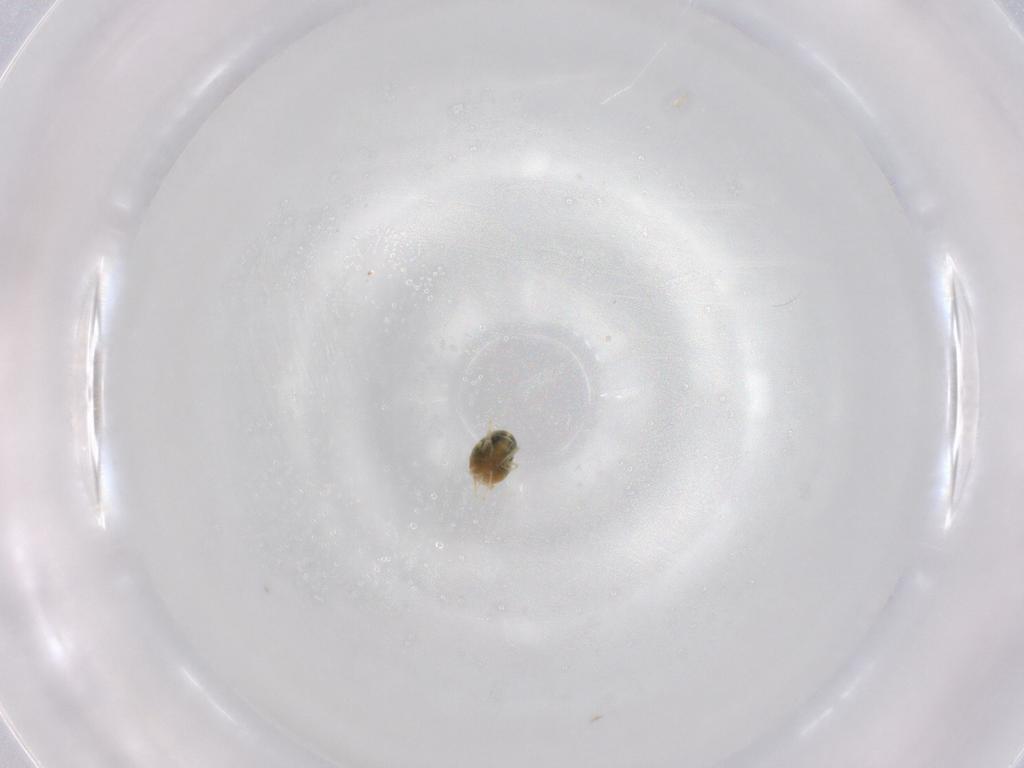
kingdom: Animalia
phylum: Arthropoda
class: Arachnida
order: Trombidiformes
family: Tetranychidae
